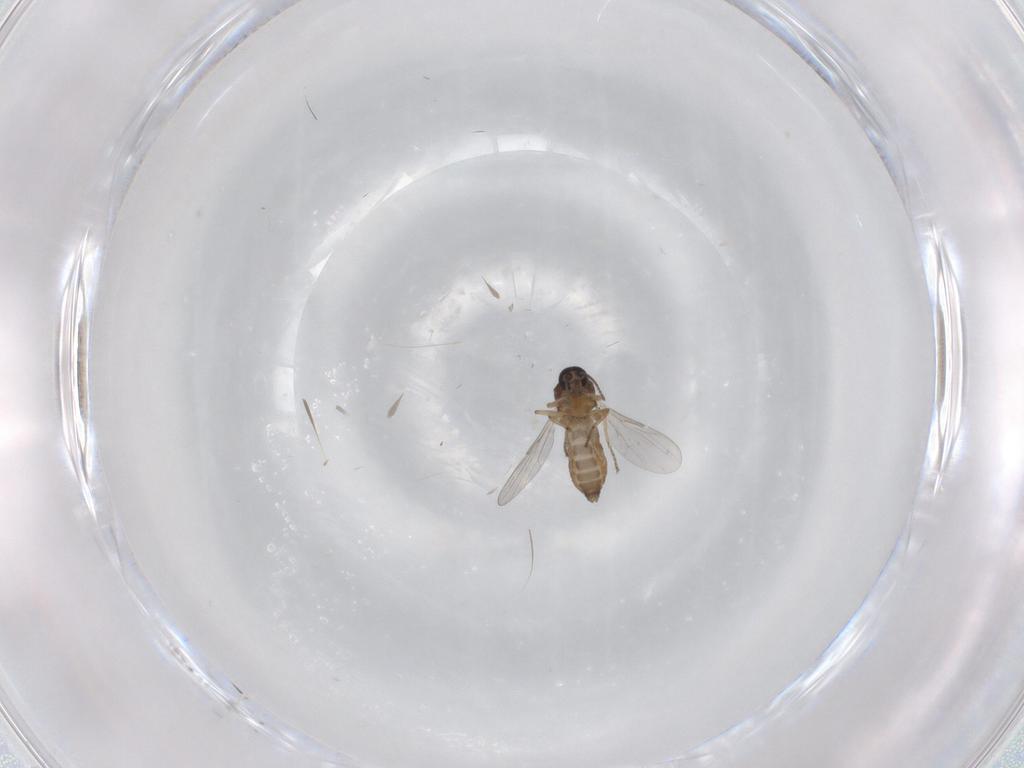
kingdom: Animalia
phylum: Arthropoda
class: Insecta
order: Diptera
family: Ceratopogonidae
